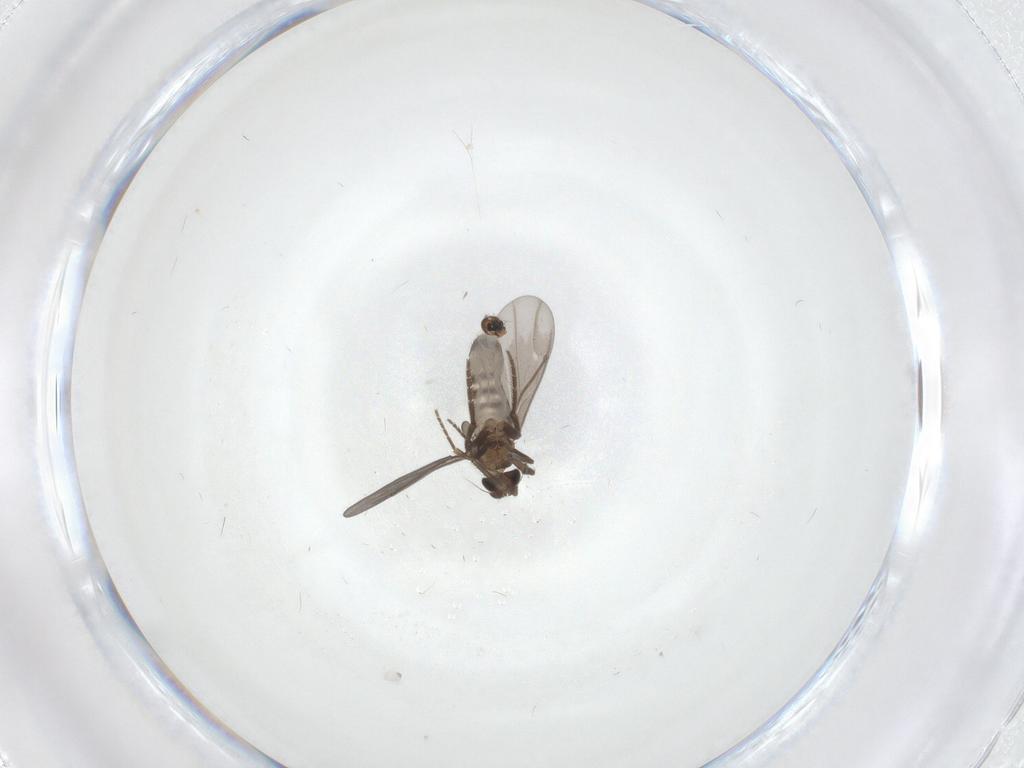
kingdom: Animalia
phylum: Arthropoda
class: Insecta
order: Diptera
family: Phoridae
